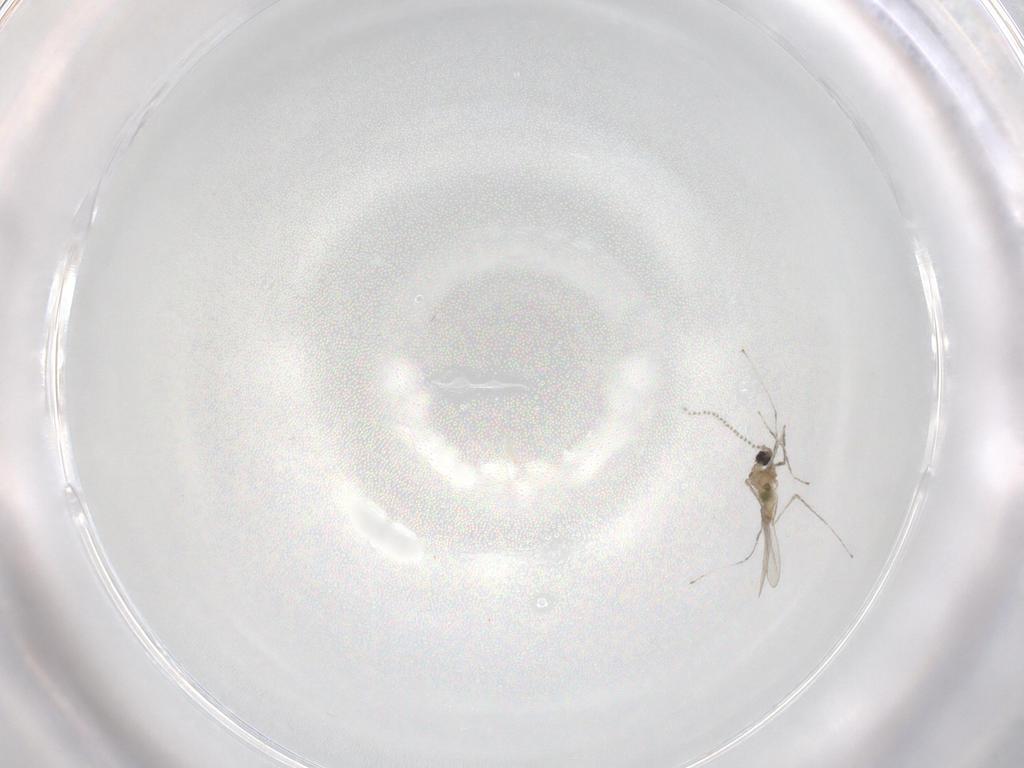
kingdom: Animalia
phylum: Arthropoda
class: Insecta
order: Diptera
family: Cecidomyiidae
